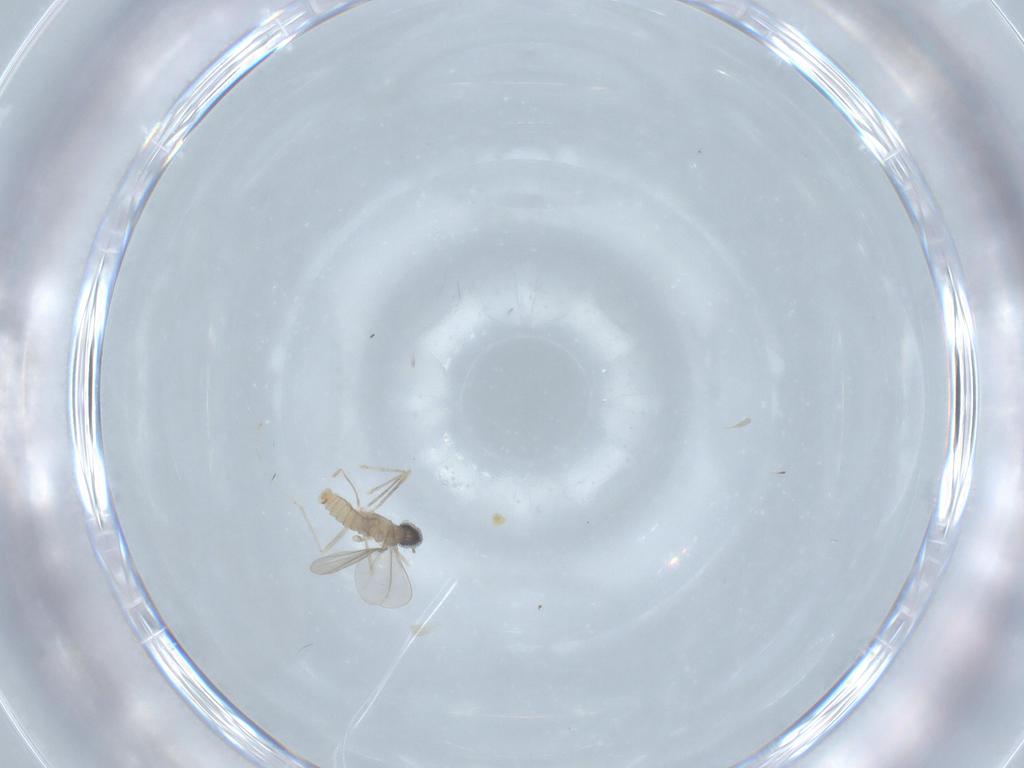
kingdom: Animalia
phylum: Arthropoda
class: Insecta
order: Diptera
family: Cecidomyiidae
